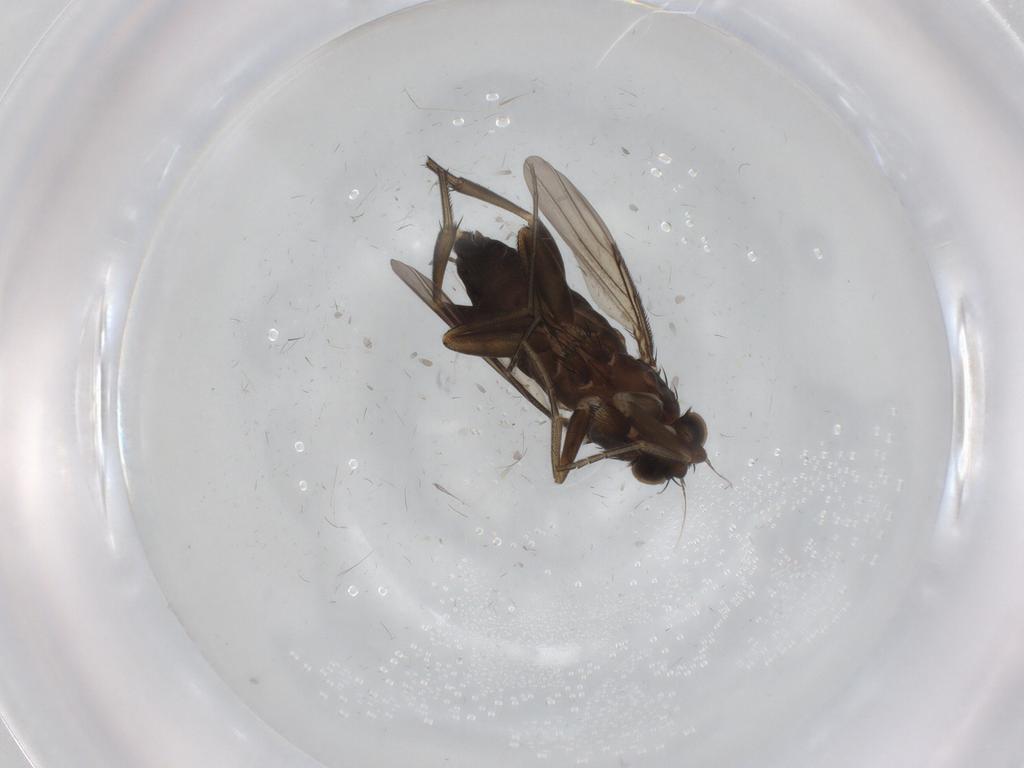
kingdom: Animalia
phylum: Arthropoda
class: Insecta
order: Diptera
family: Phoridae
